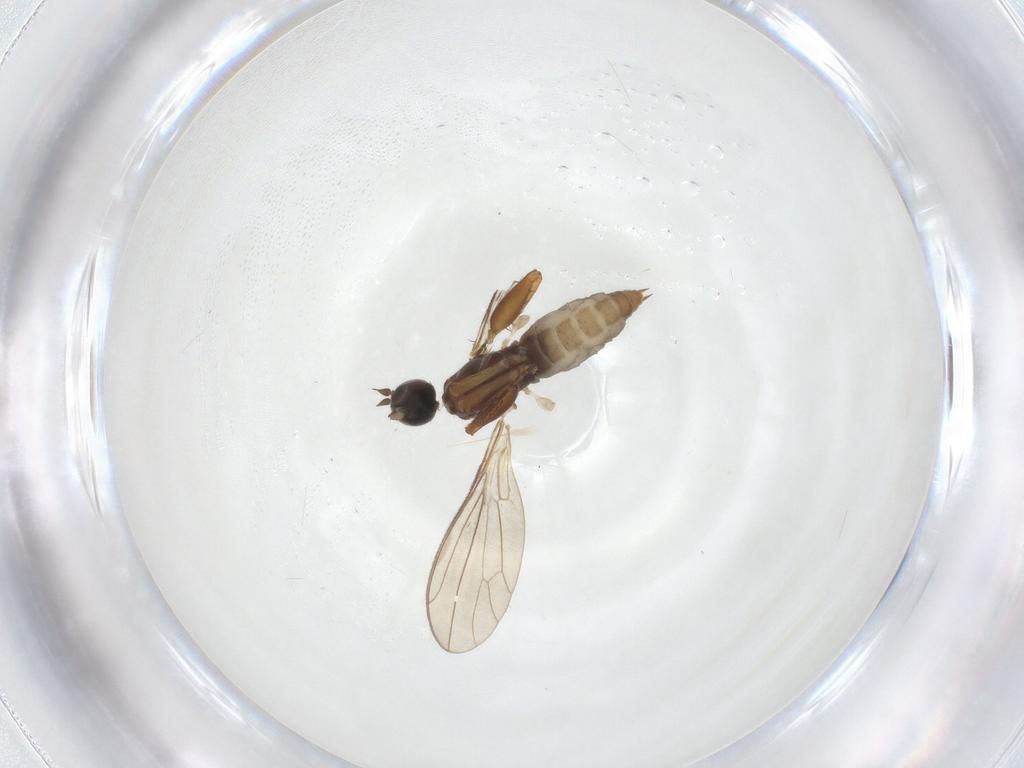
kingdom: Animalia
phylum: Arthropoda
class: Insecta
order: Diptera
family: Empididae
